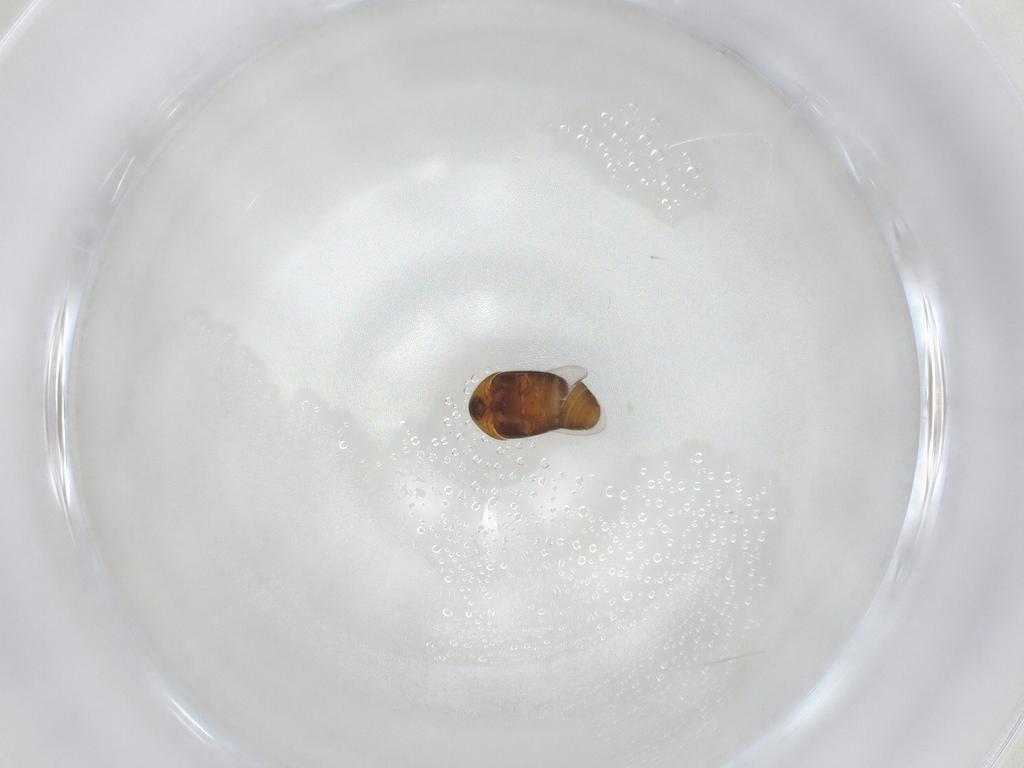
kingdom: Animalia
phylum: Arthropoda
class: Insecta
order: Coleoptera
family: Corylophidae
